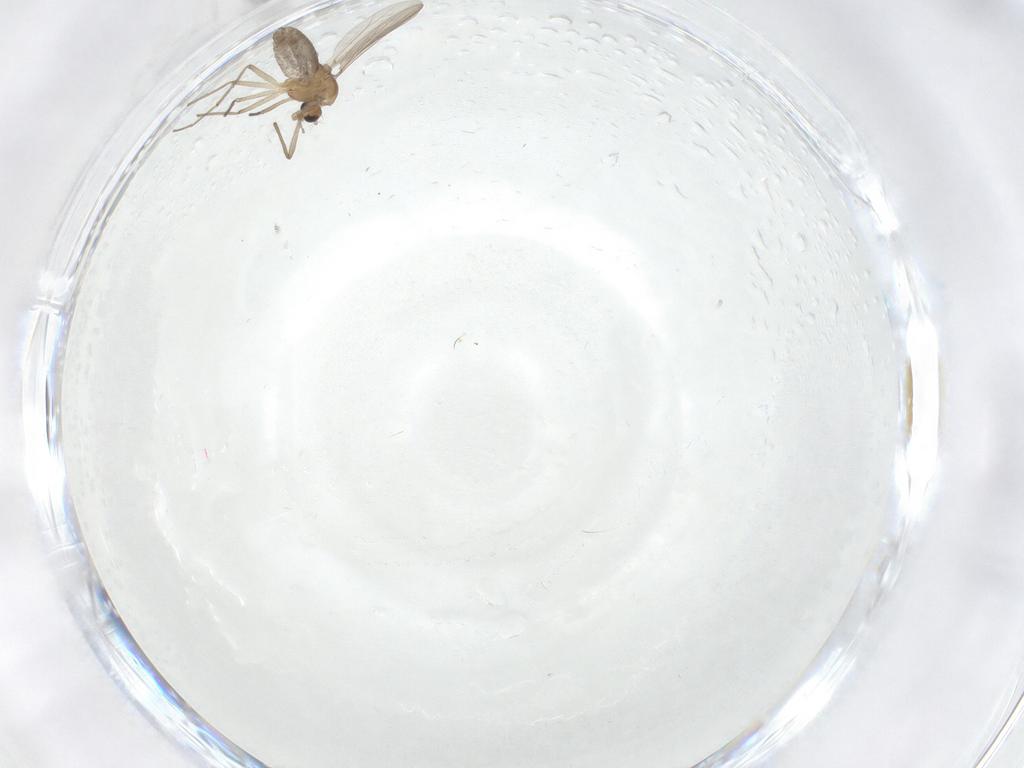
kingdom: Animalia
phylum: Arthropoda
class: Insecta
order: Diptera
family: Chironomidae
